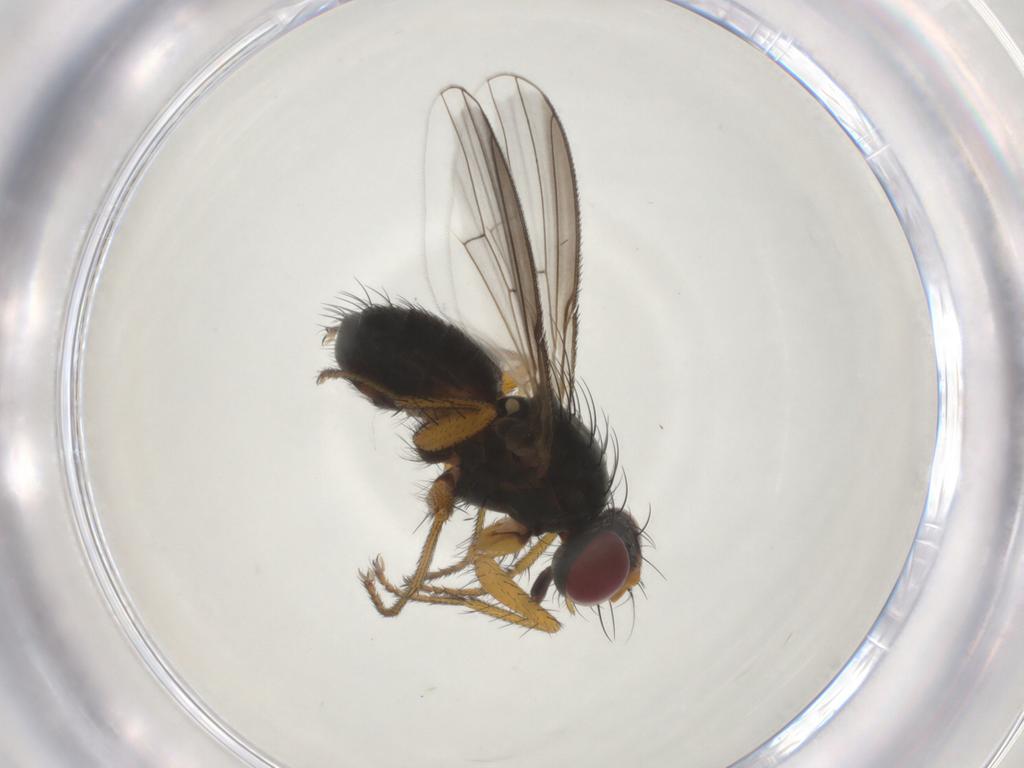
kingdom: Animalia
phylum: Arthropoda
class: Insecta
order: Diptera
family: Muscidae
